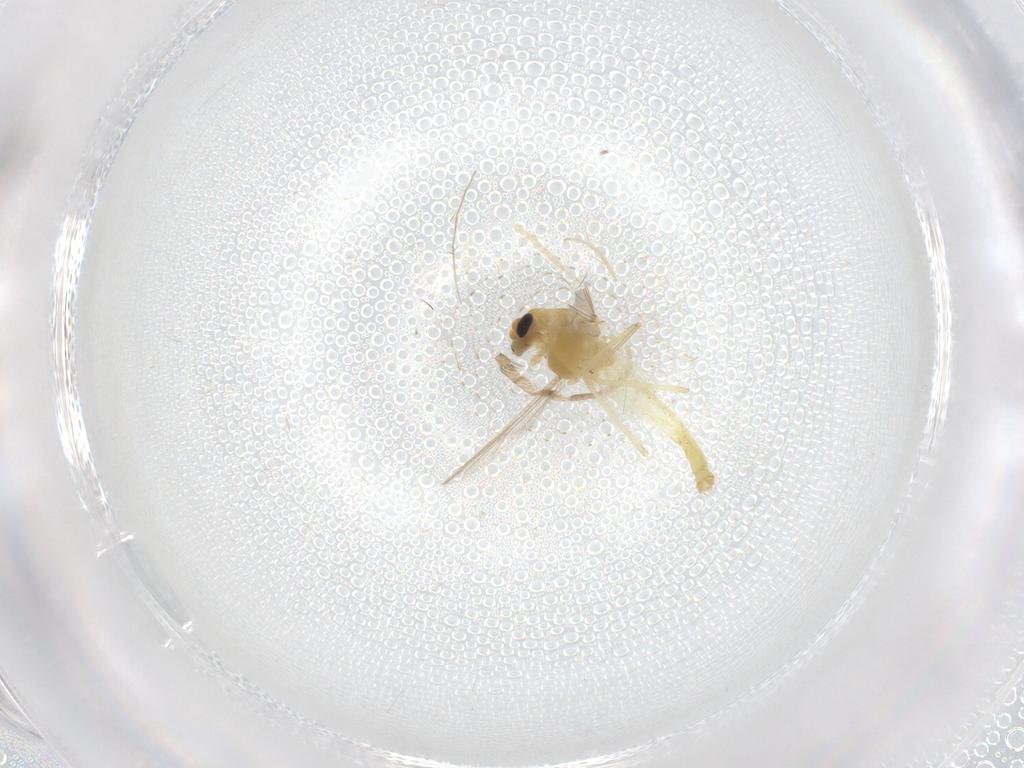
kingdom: Animalia
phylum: Arthropoda
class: Insecta
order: Diptera
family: Chironomidae
